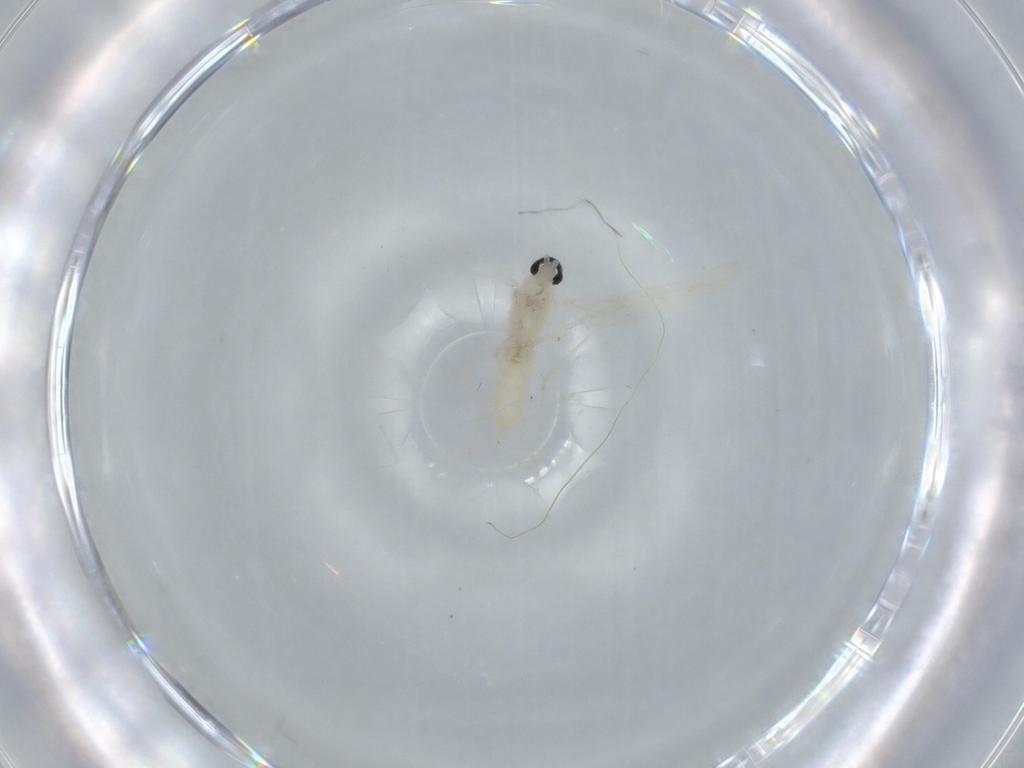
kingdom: Animalia
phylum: Arthropoda
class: Insecta
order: Diptera
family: Cecidomyiidae
